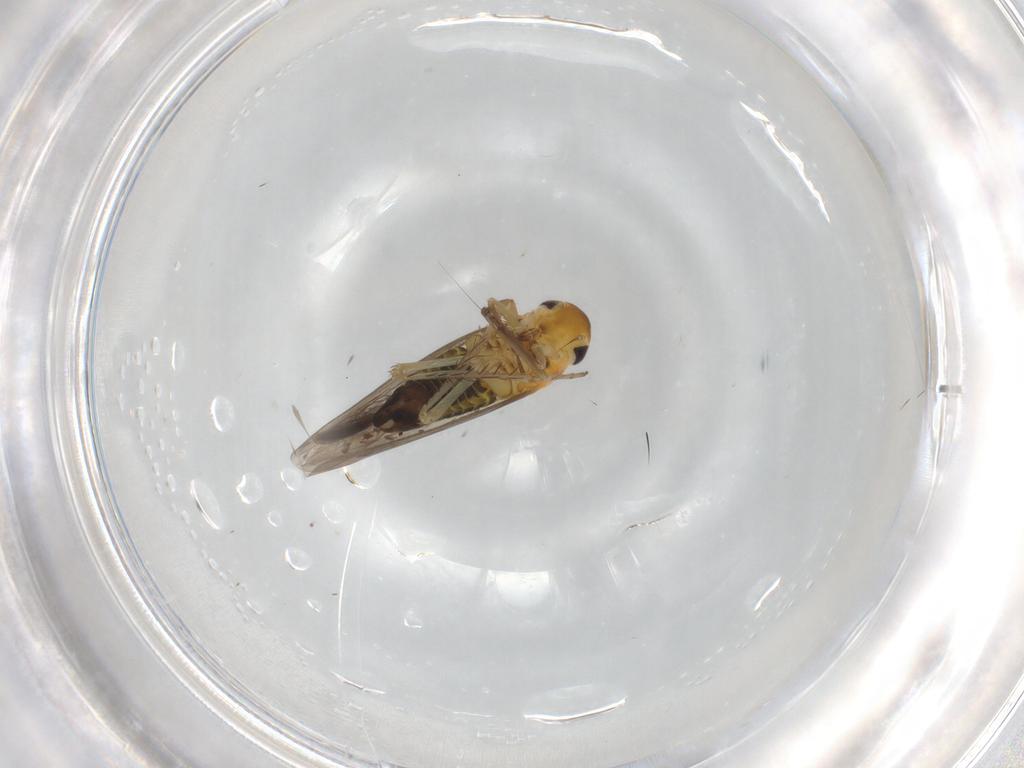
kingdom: Animalia
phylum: Arthropoda
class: Insecta
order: Hemiptera
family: Cicadellidae
